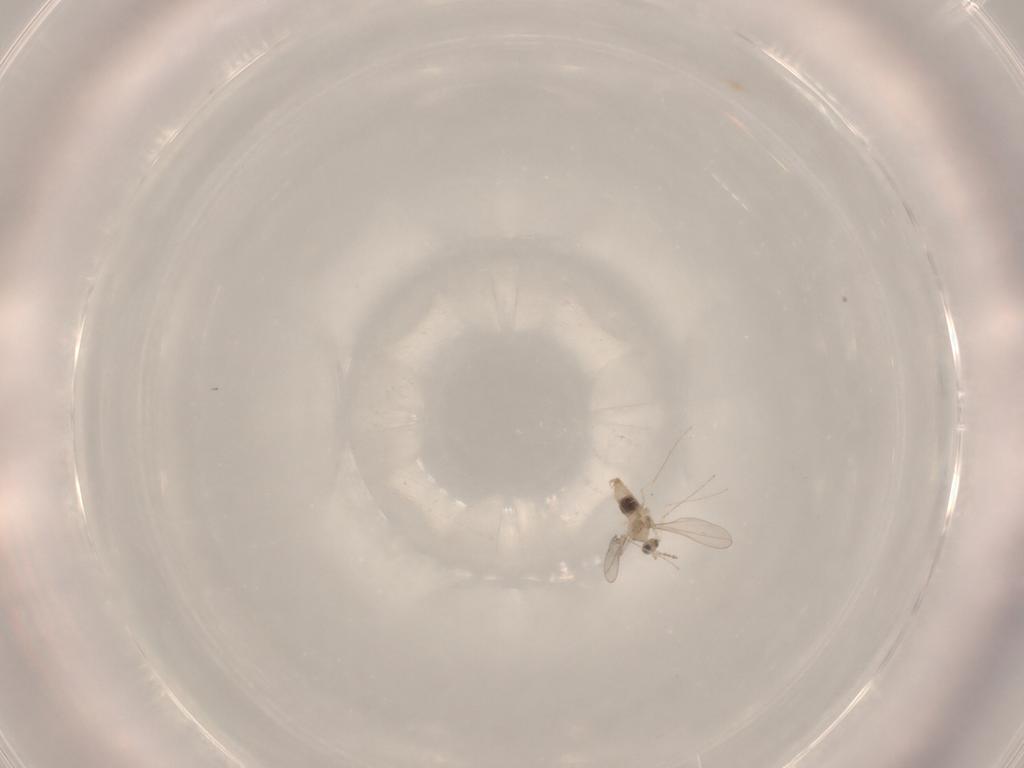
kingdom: Animalia
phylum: Arthropoda
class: Insecta
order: Diptera
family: Cecidomyiidae
